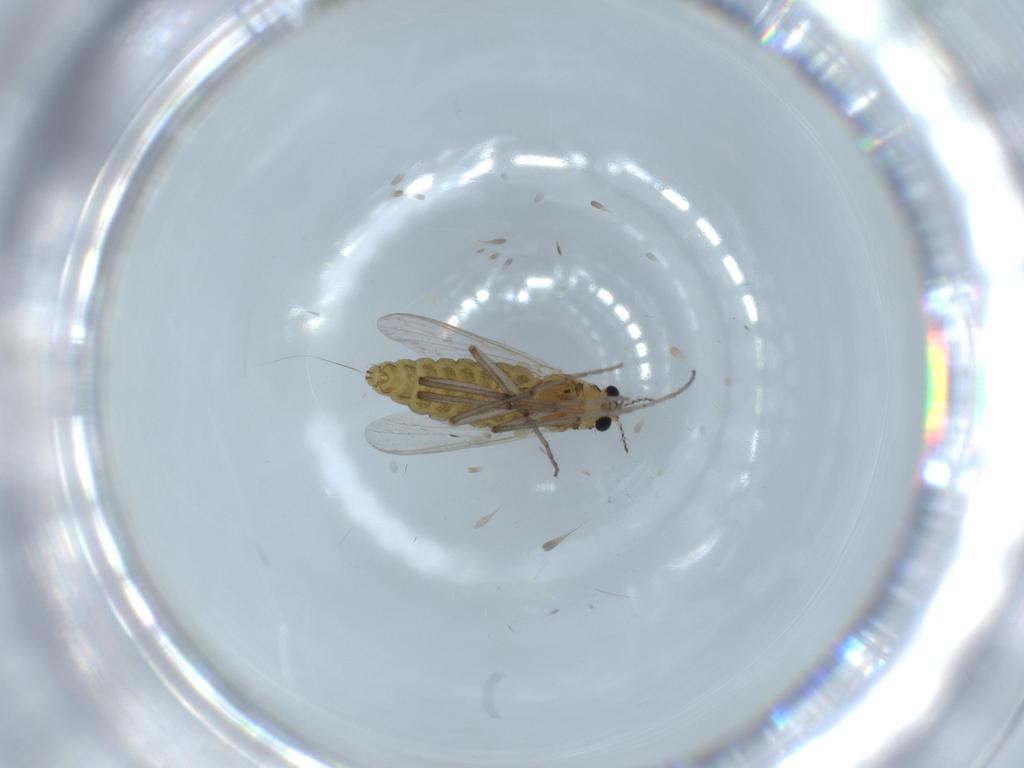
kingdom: Animalia
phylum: Arthropoda
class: Insecta
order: Diptera
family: Chironomidae
